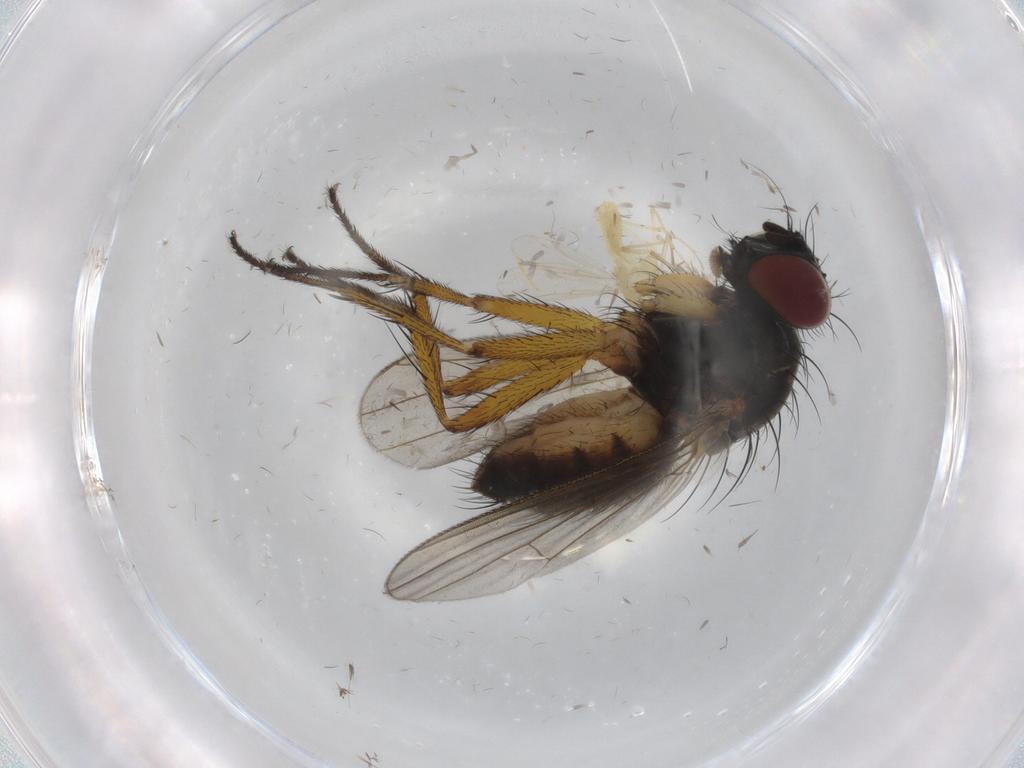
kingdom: Animalia
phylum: Arthropoda
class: Insecta
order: Diptera
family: Muscidae
